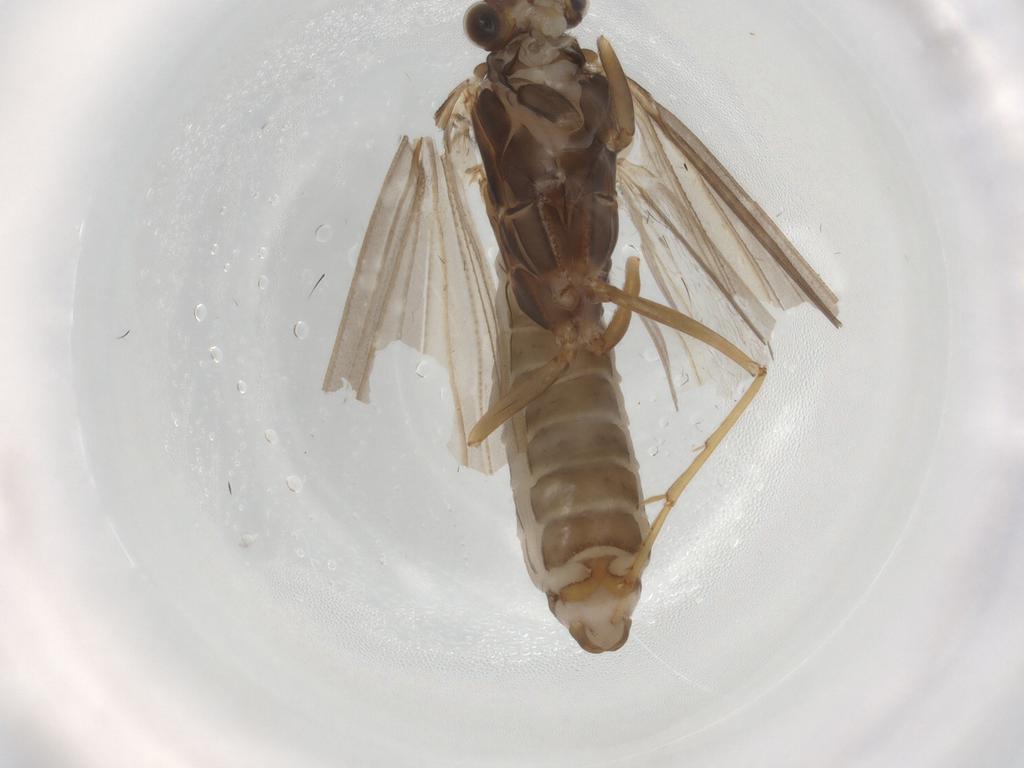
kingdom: Animalia
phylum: Arthropoda
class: Insecta
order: Trichoptera
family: Lepidostomatidae
